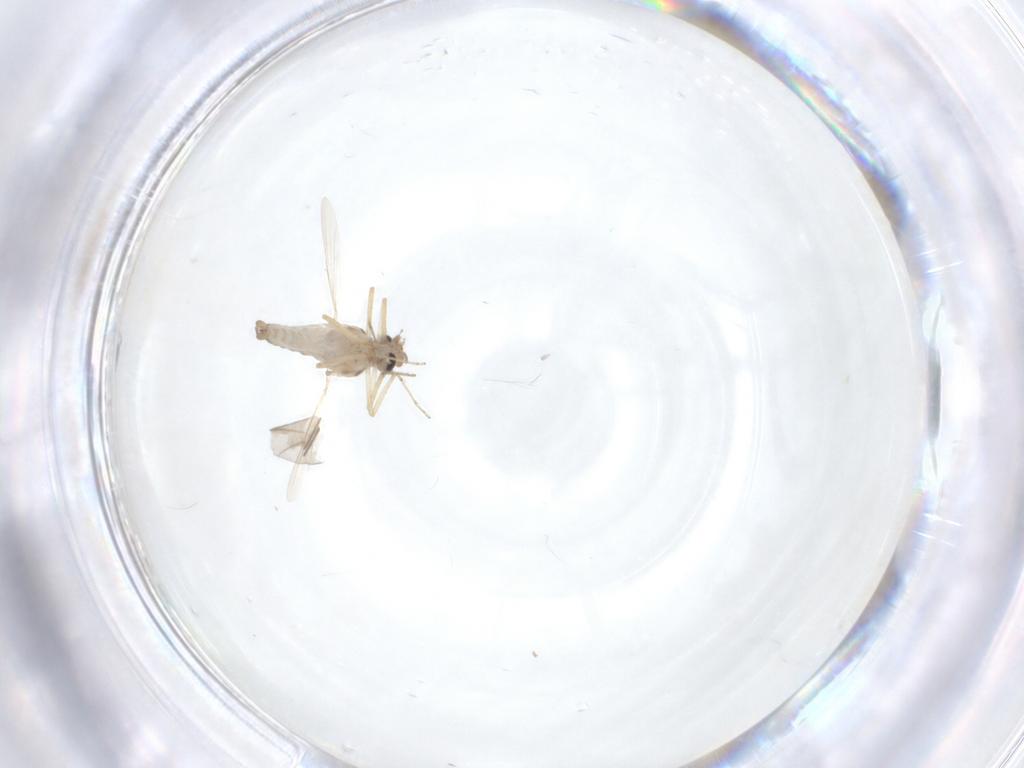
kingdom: Animalia
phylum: Arthropoda
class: Insecta
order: Diptera
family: Ceratopogonidae
